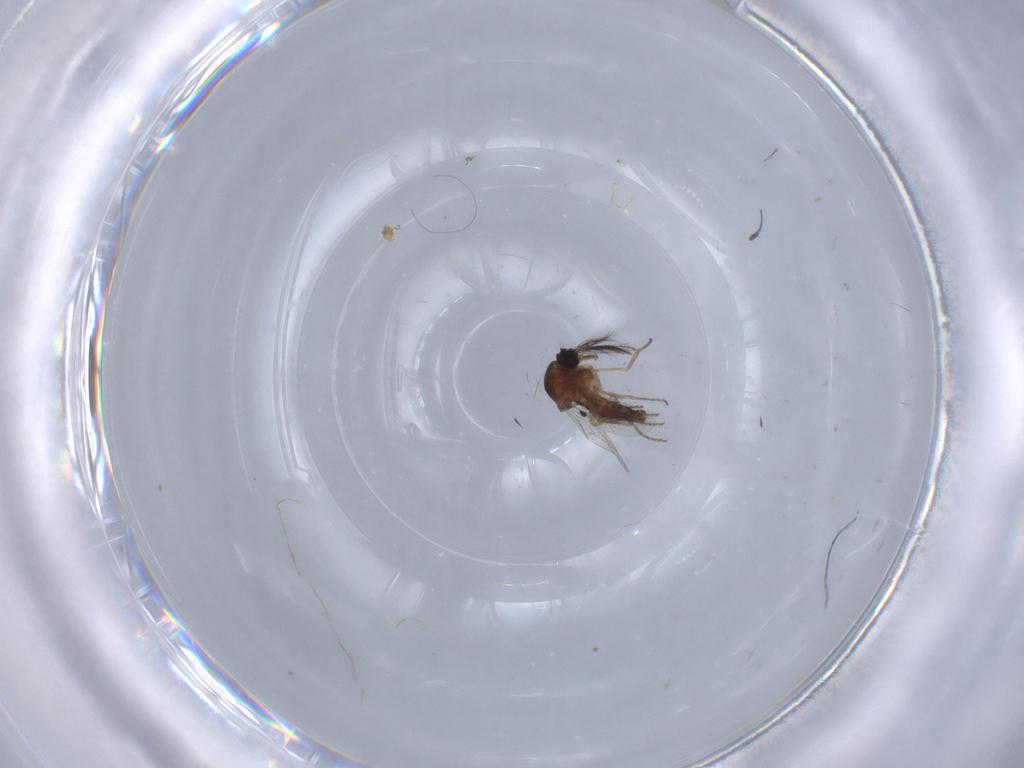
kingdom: Animalia
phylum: Arthropoda
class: Insecta
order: Diptera
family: Ceratopogonidae
